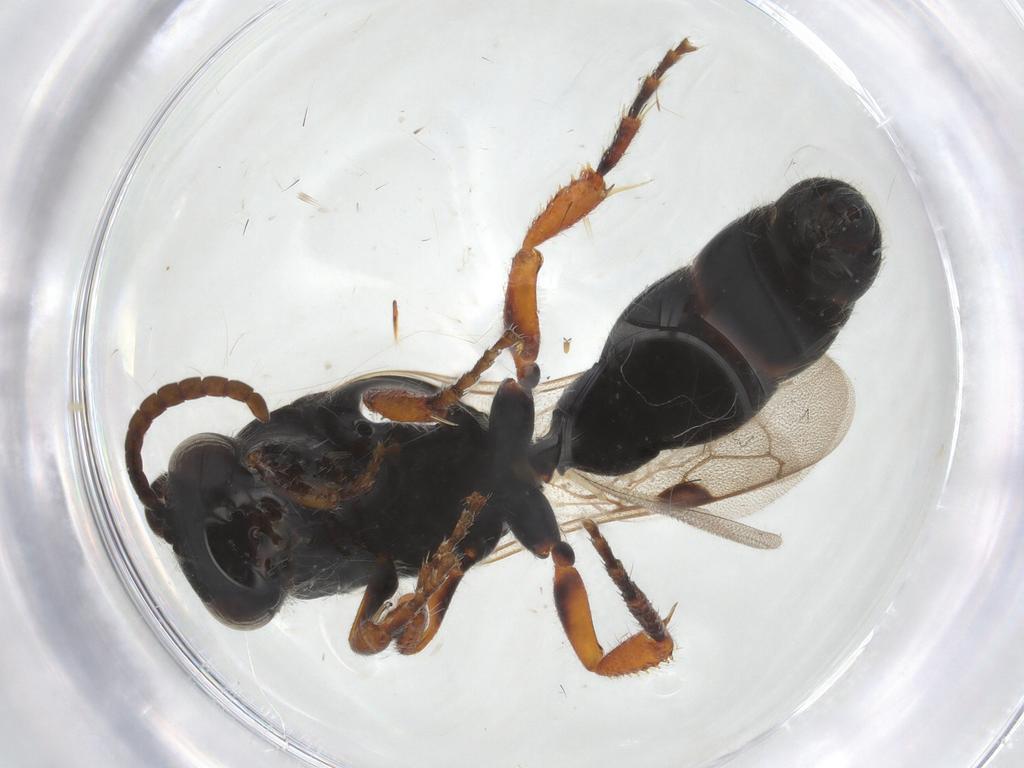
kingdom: Animalia
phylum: Arthropoda
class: Insecta
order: Hymenoptera
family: Formicidae
